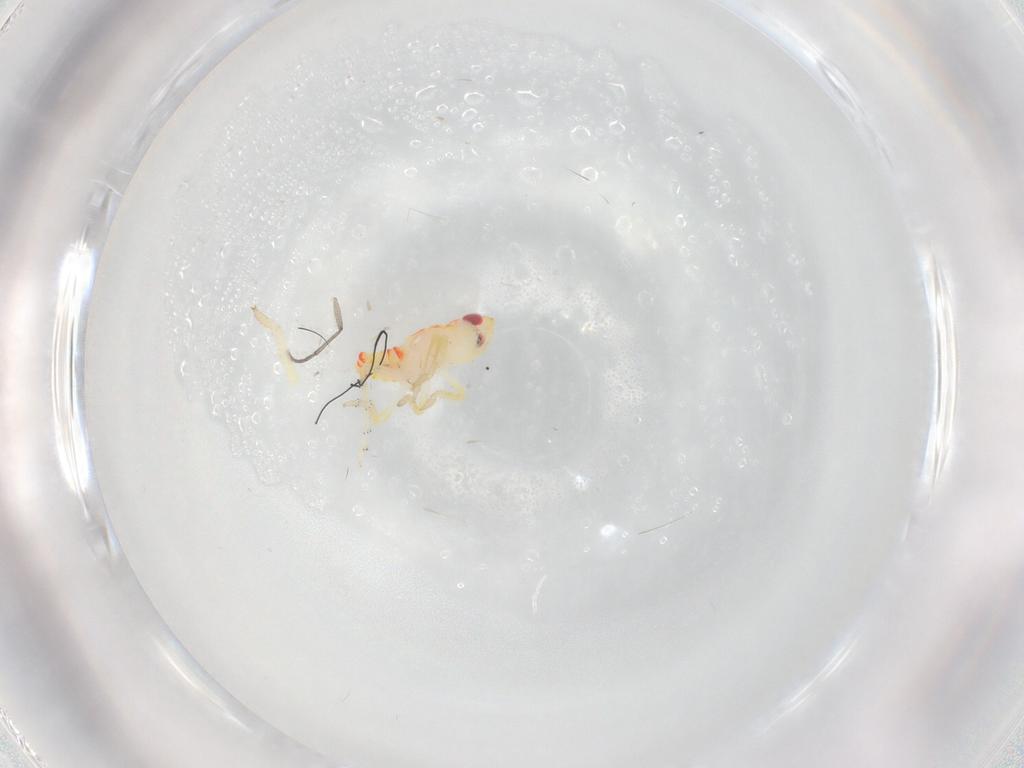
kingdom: Animalia
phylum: Arthropoda
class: Insecta
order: Hemiptera
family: Tropiduchidae
